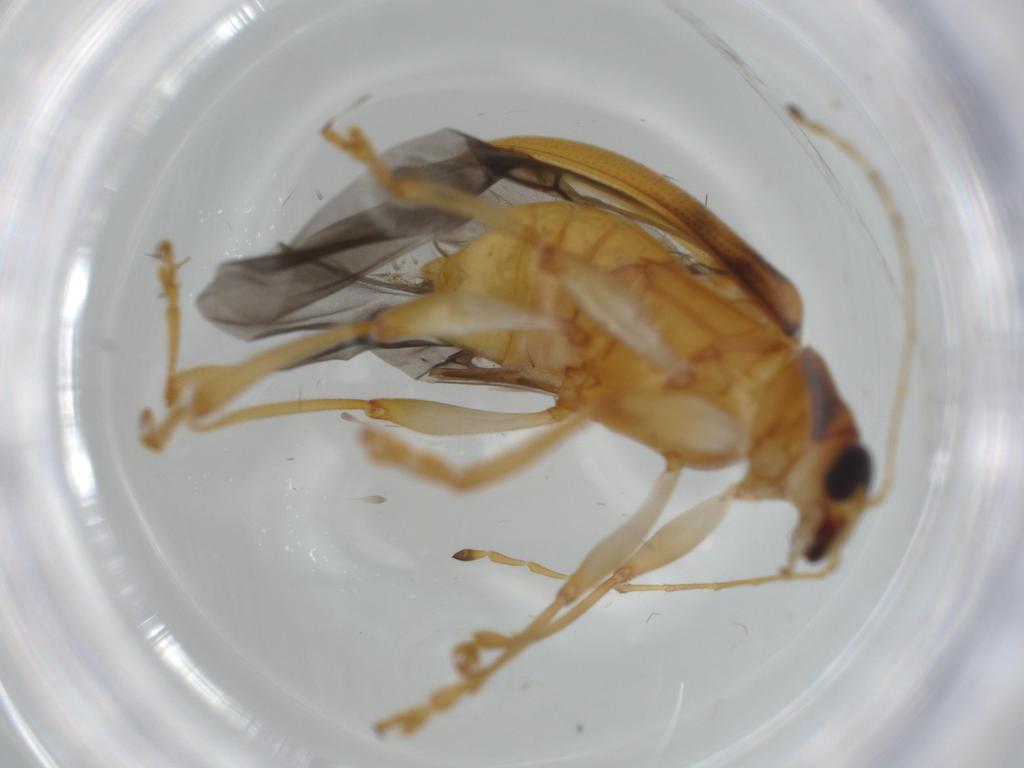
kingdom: Animalia
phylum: Arthropoda
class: Insecta
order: Coleoptera
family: Chrysomelidae
